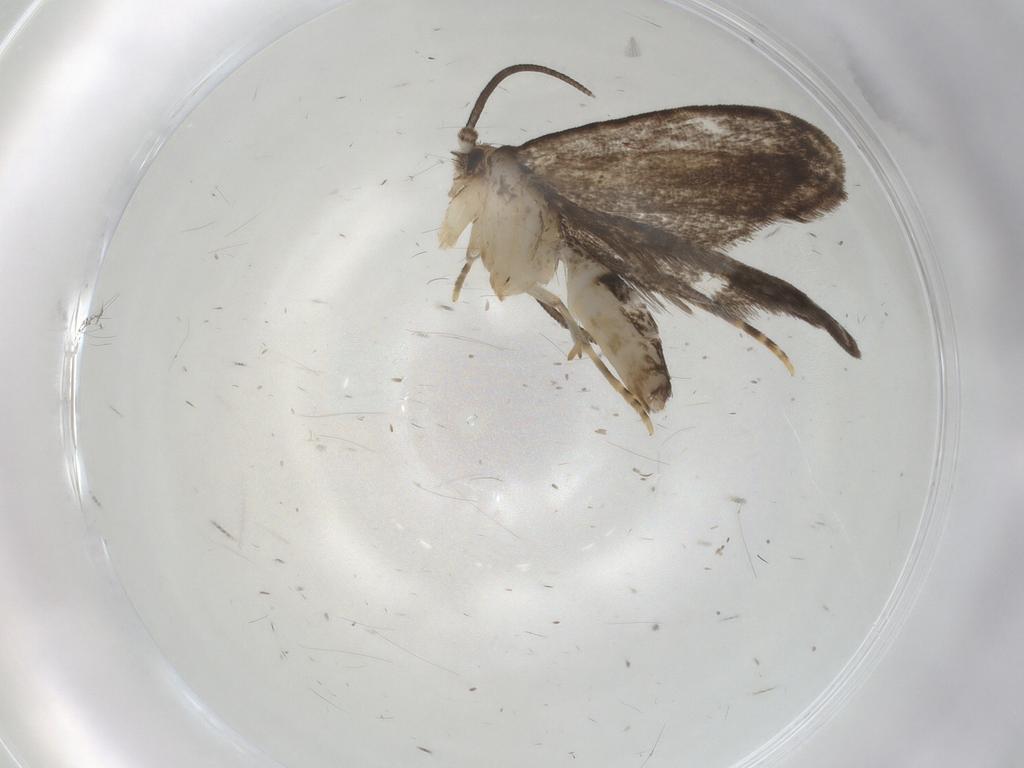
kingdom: Animalia
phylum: Arthropoda
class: Insecta
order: Lepidoptera
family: Dryadaulidae
